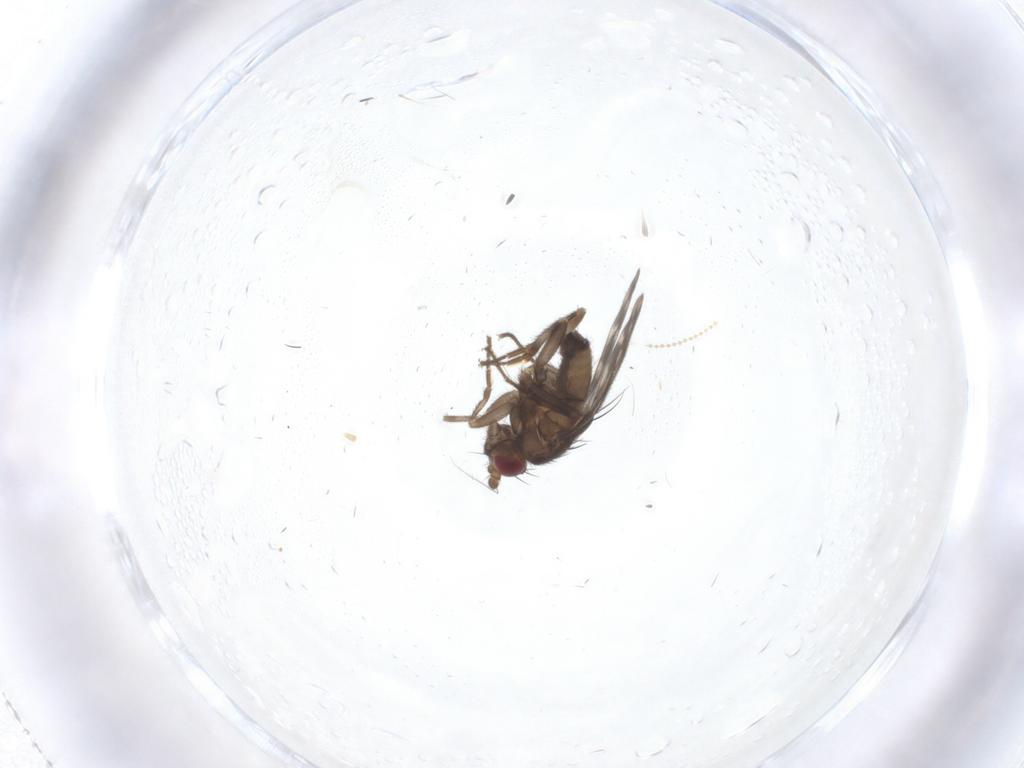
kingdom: Animalia
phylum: Arthropoda
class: Insecta
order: Diptera
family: Sphaeroceridae
